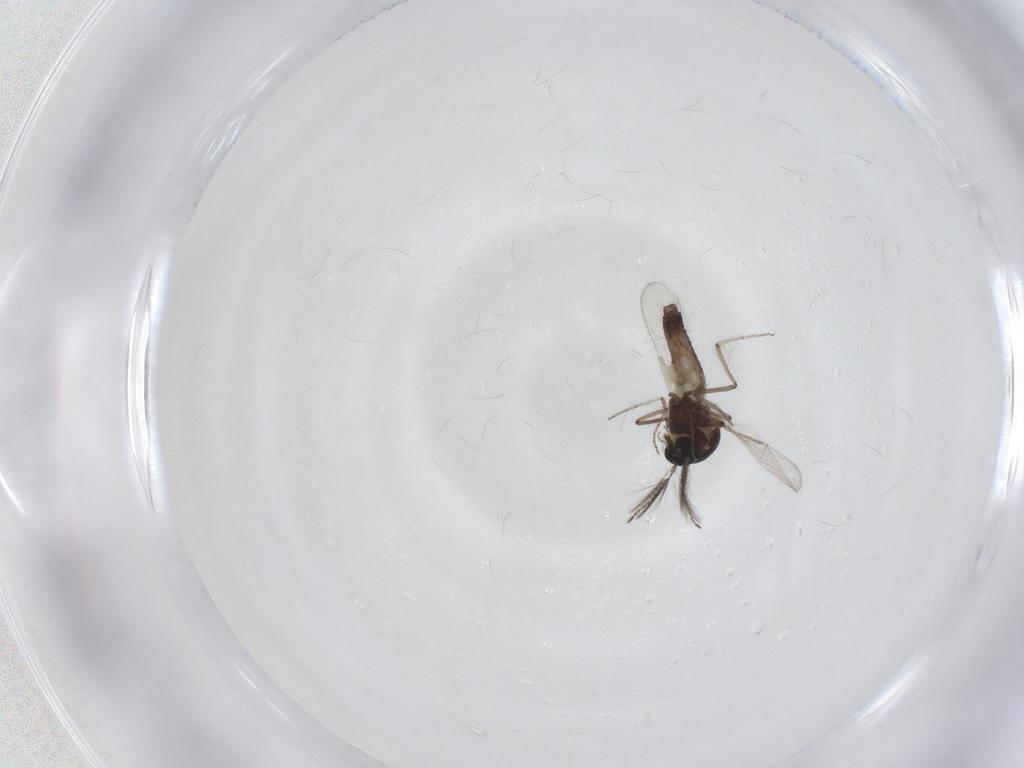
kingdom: Animalia
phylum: Arthropoda
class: Insecta
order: Diptera
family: Ceratopogonidae
